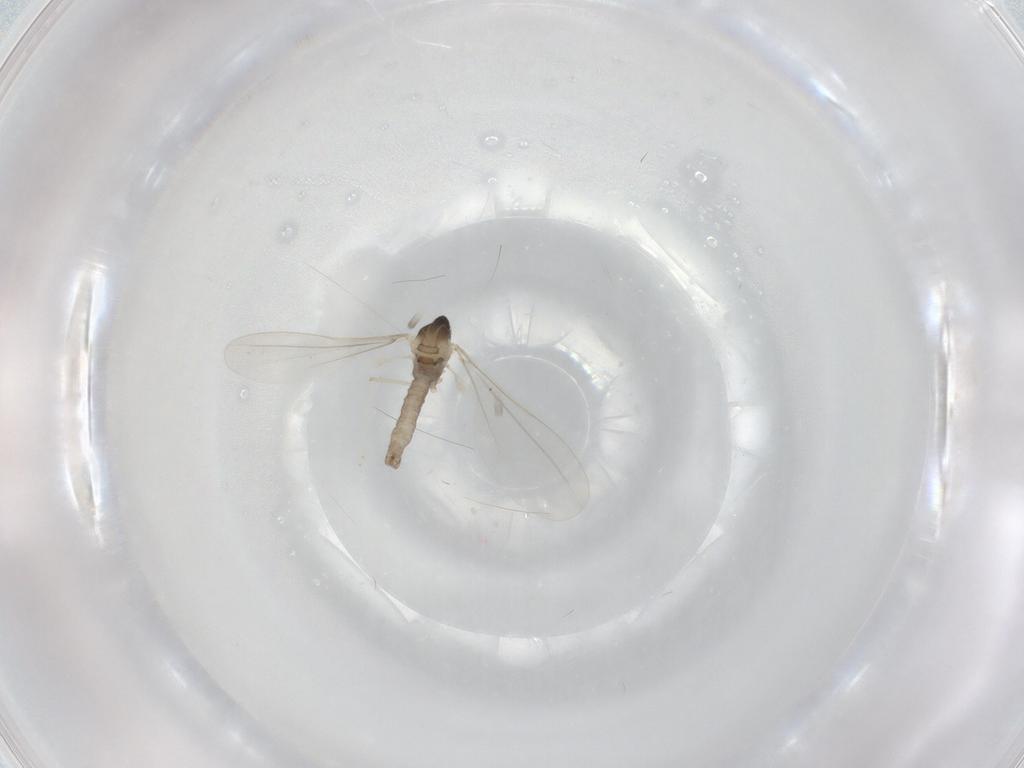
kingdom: Animalia
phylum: Arthropoda
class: Insecta
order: Diptera
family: Cecidomyiidae
